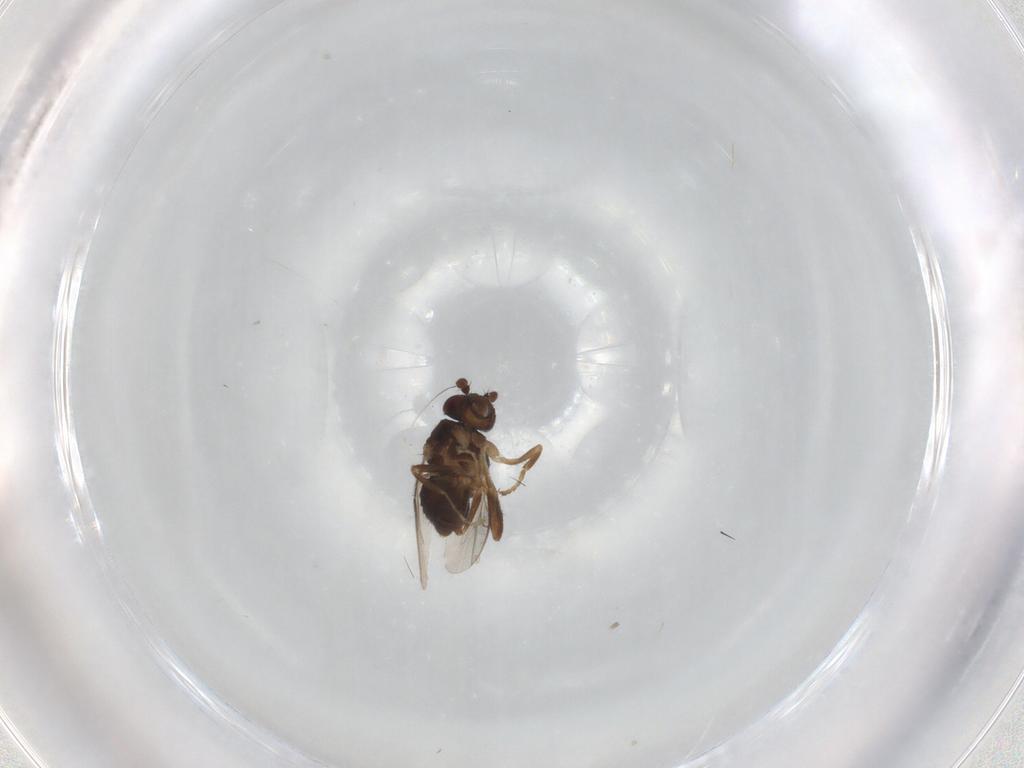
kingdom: Animalia
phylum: Arthropoda
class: Insecta
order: Diptera
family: Sphaeroceridae
